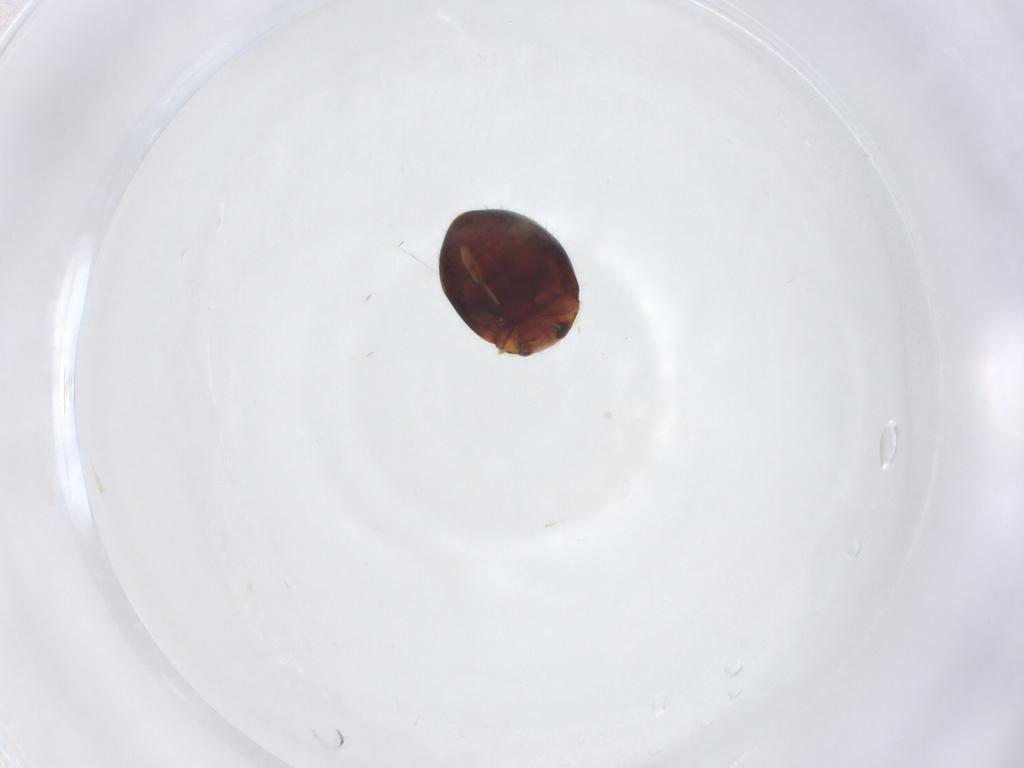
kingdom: Animalia
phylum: Arthropoda
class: Insecta
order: Coleoptera
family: Coccinellidae
